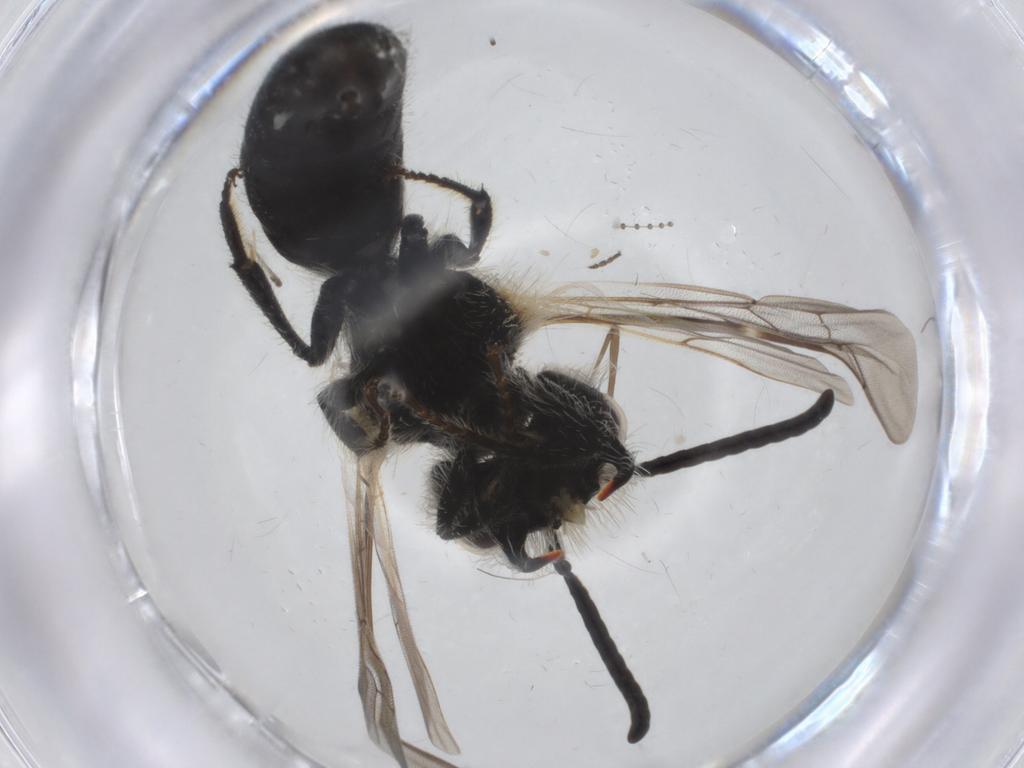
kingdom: Animalia
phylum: Arthropoda
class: Insecta
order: Hymenoptera
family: Andrenidae
